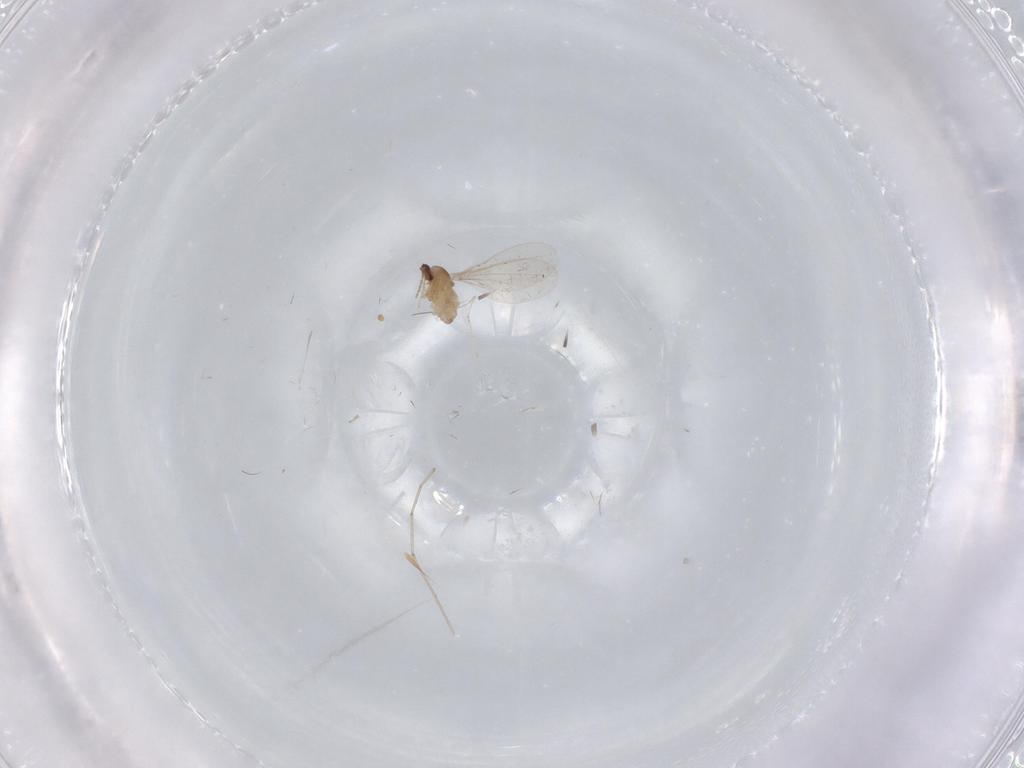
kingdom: Animalia
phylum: Arthropoda
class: Insecta
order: Diptera
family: Cecidomyiidae
